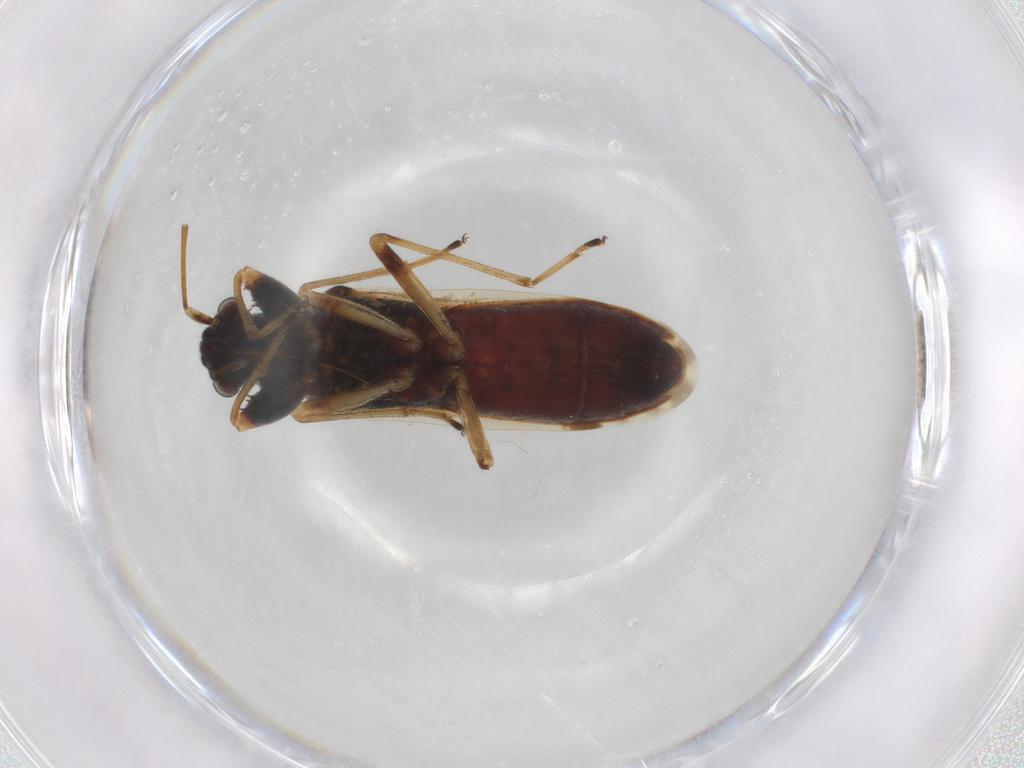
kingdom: Animalia
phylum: Arthropoda
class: Insecta
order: Hemiptera
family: Rhyparochromidae
